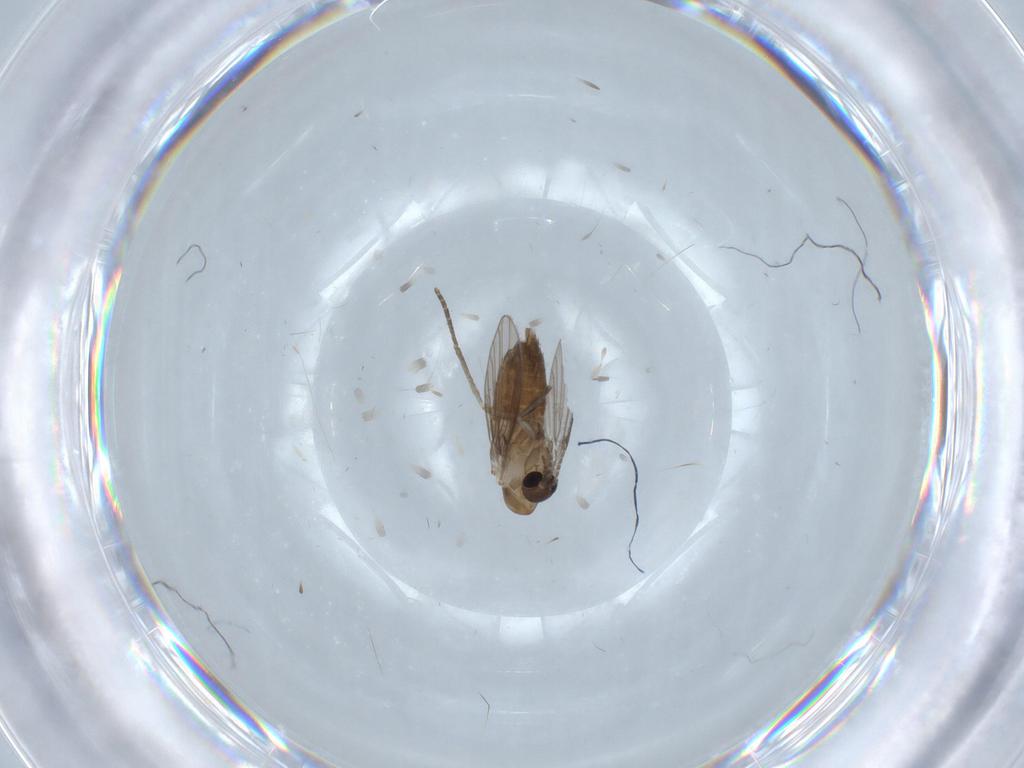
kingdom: Animalia
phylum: Arthropoda
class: Insecta
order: Diptera
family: Psychodidae
